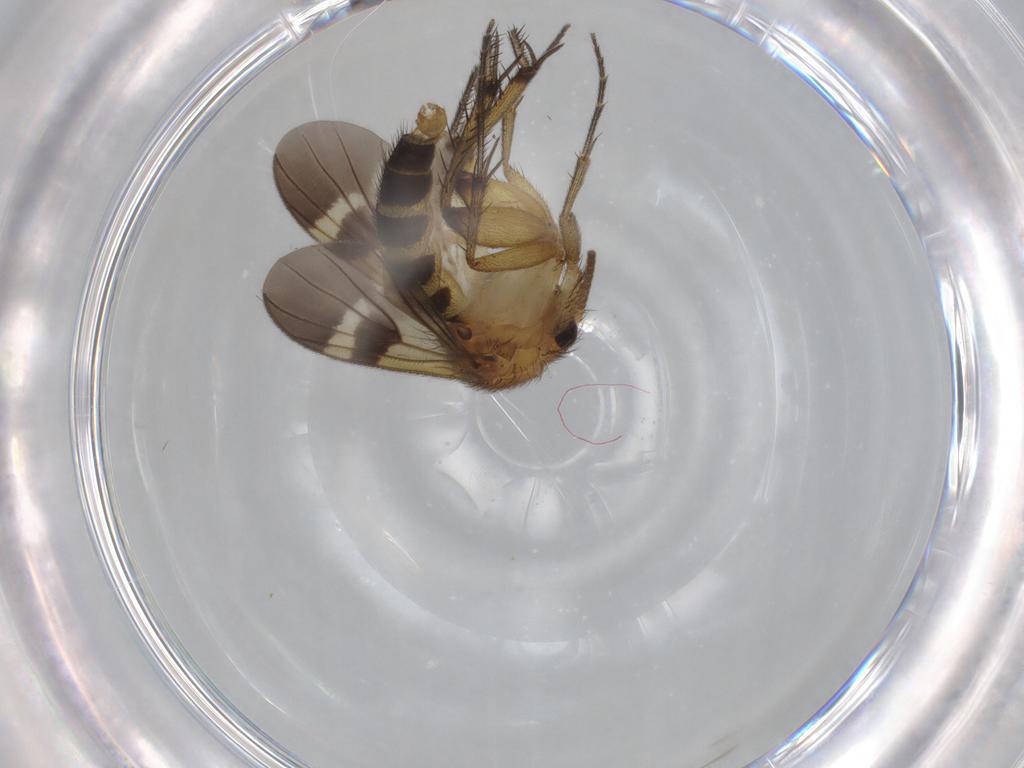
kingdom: Animalia
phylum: Arthropoda
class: Insecta
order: Diptera
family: Mycetophilidae
